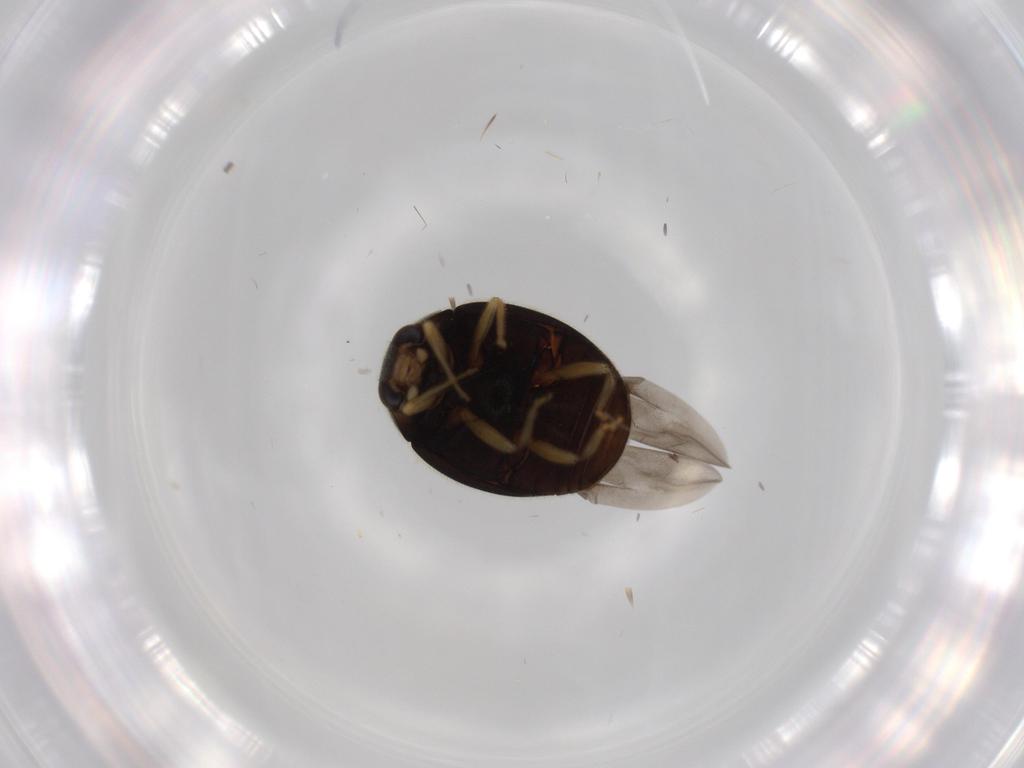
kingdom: Animalia
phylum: Arthropoda
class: Insecta
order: Coleoptera
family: Coccinellidae
